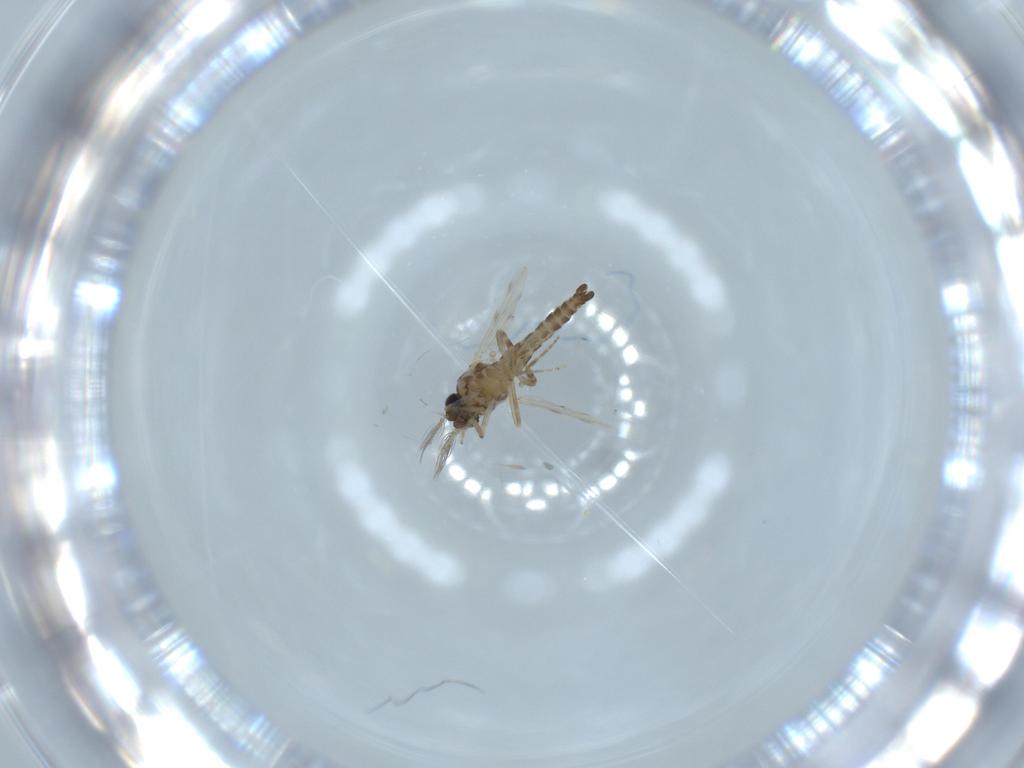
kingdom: Animalia
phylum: Arthropoda
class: Insecta
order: Diptera
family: Ceratopogonidae
